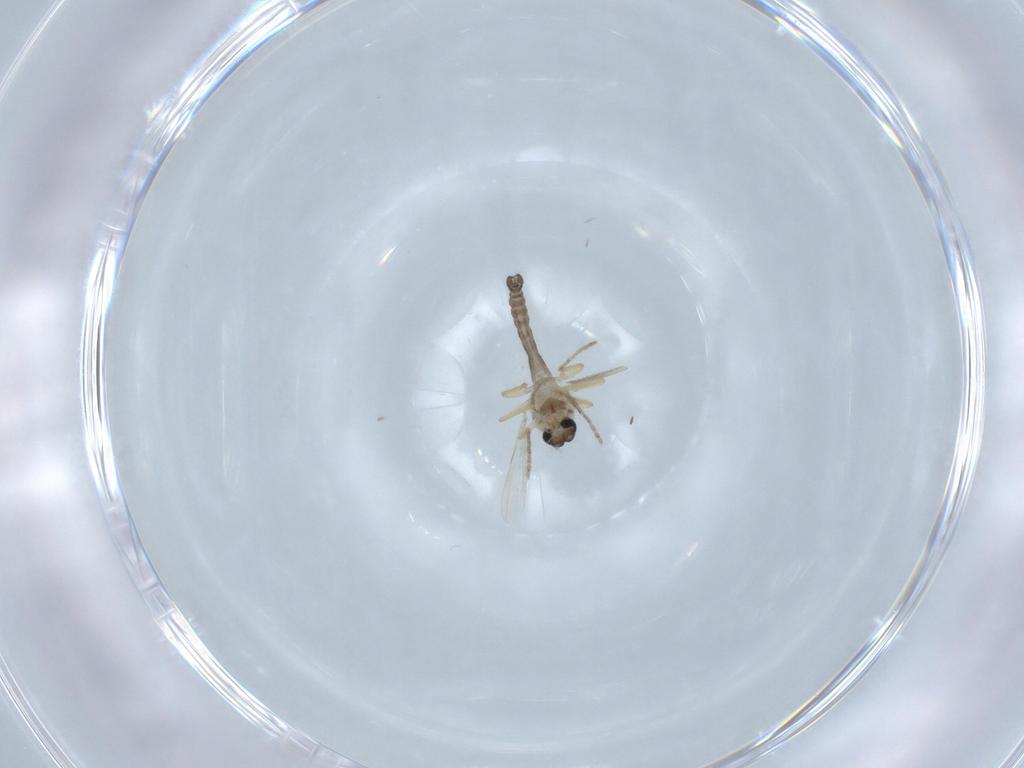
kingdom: Animalia
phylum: Arthropoda
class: Insecta
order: Diptera
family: Ceratopogonidae
